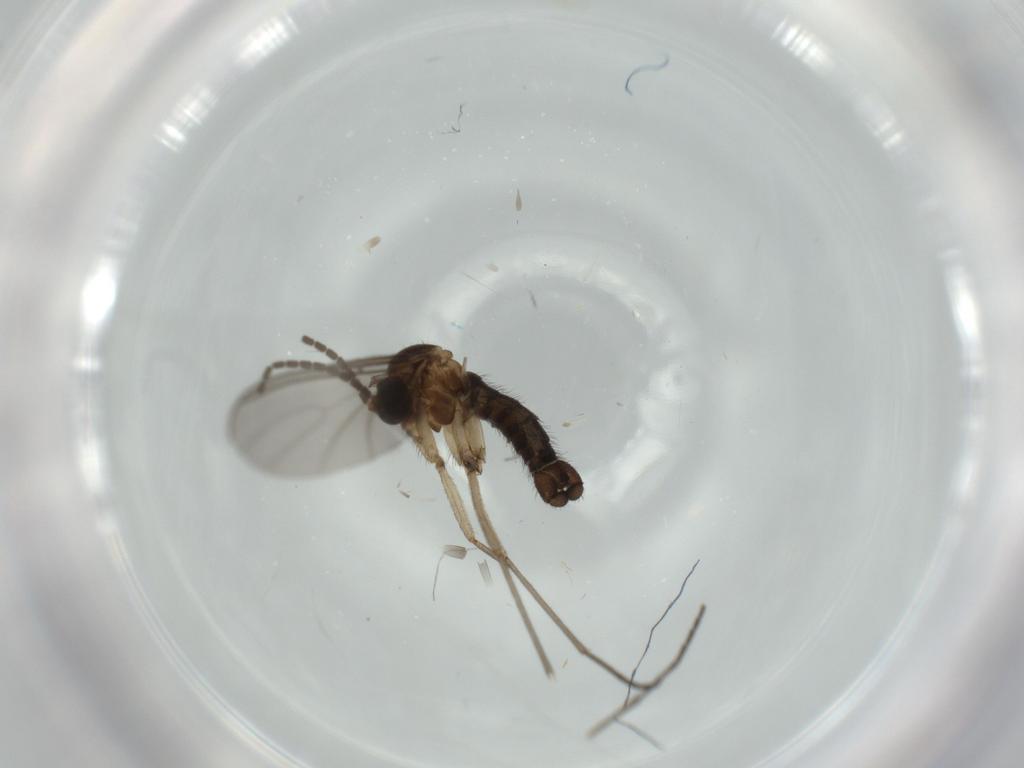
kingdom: Animalia
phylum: Arthropoda
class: Insecta
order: Diptera
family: Sciaridae
